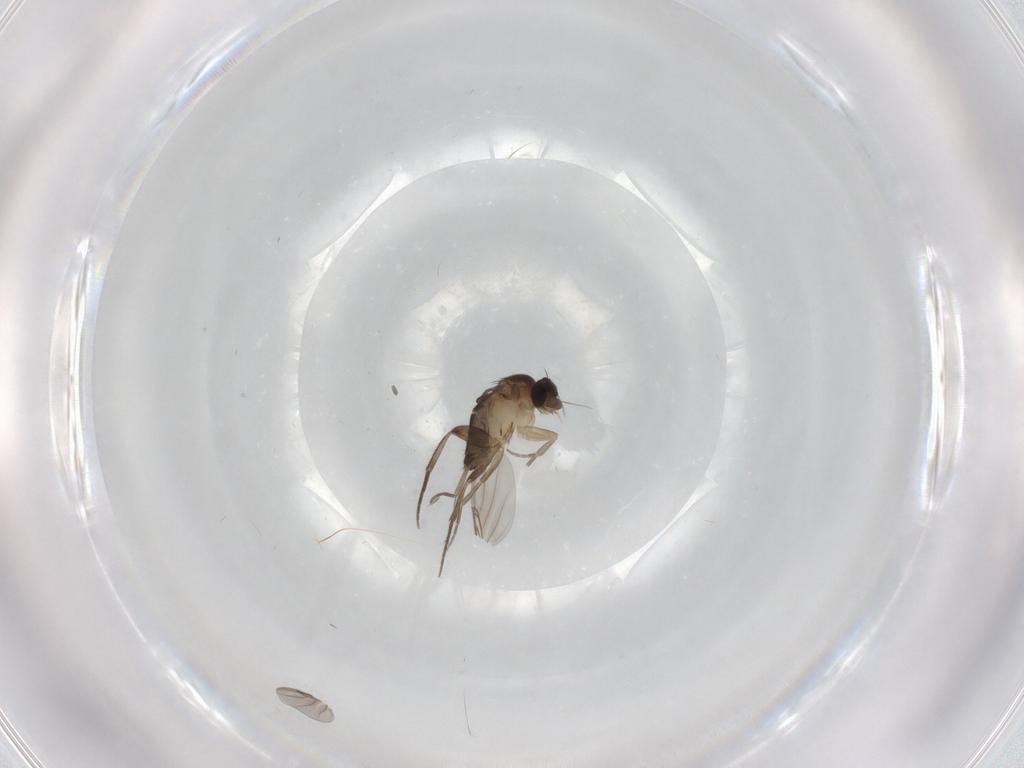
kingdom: Animalia
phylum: Arthropoda
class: Insecta
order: Diptera
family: Phoridae
